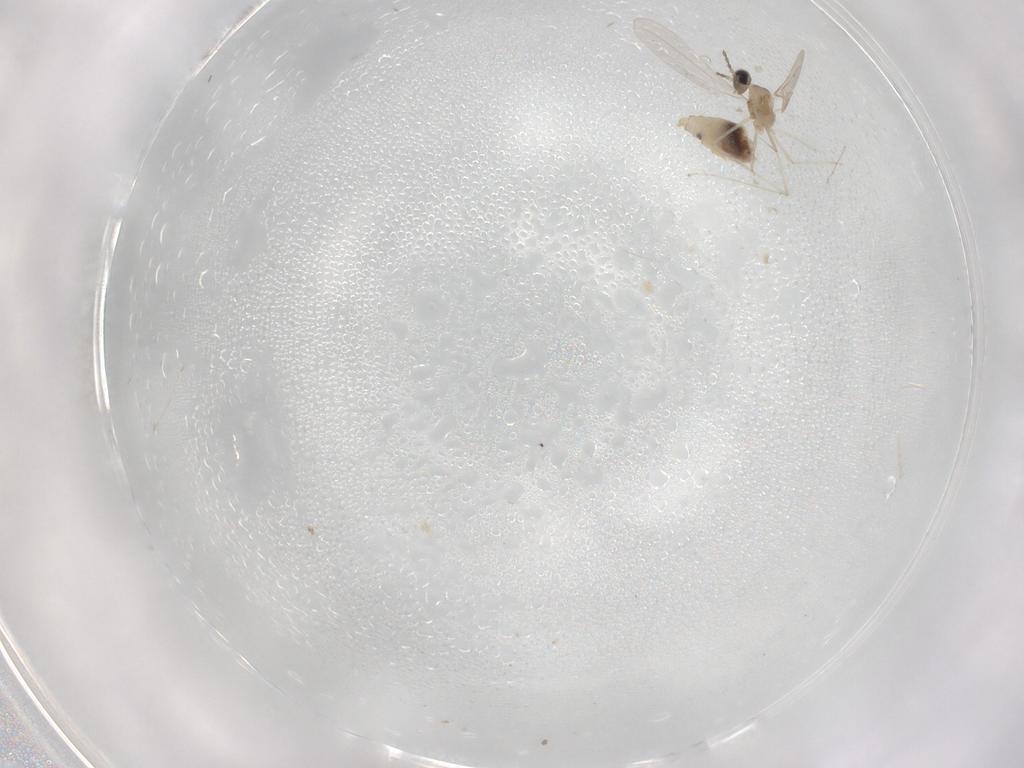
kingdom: Animalia
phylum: Arthropoda
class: Insecta
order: Diptera
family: Cecidomyiidae
